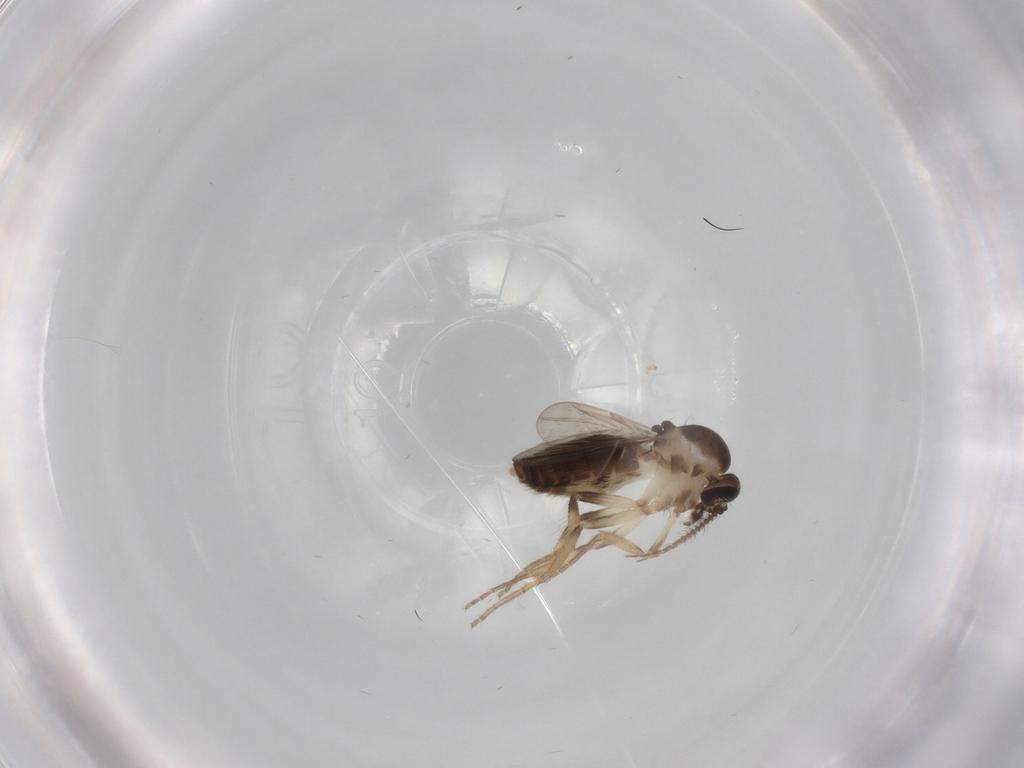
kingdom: Animalia
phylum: Arthropoda
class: Insecta
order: Diptera
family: Ceratopogonidae
